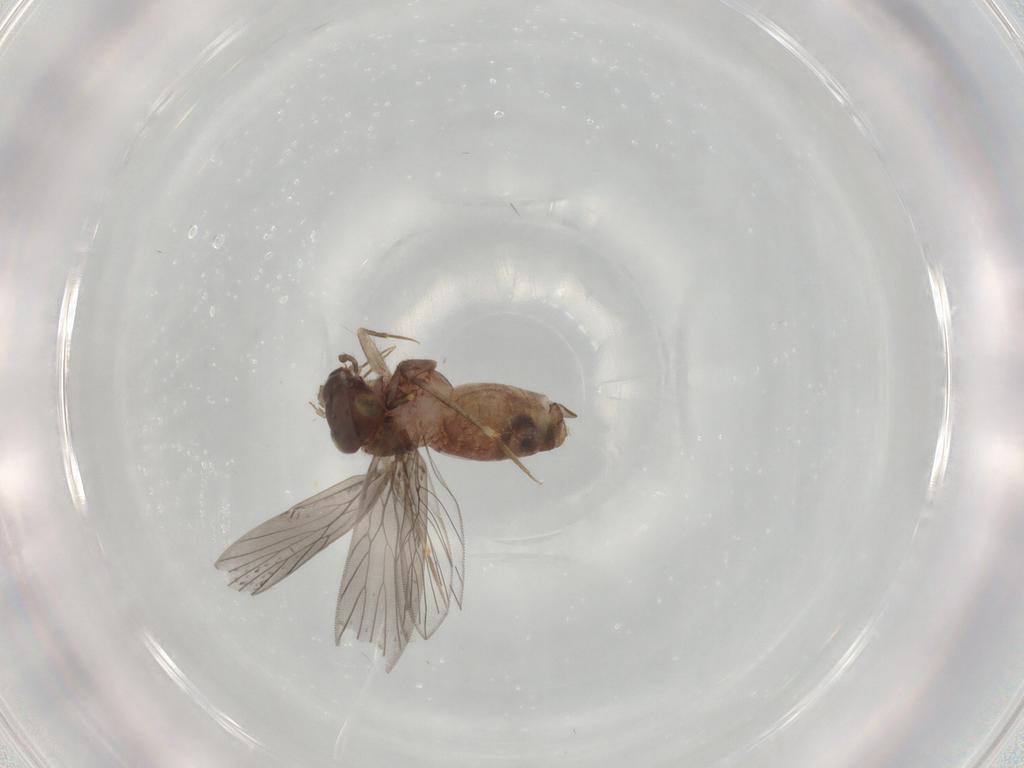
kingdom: Animalia
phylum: Arthropoda
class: Insecta
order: Psocodea
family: Lepidopsocidae
